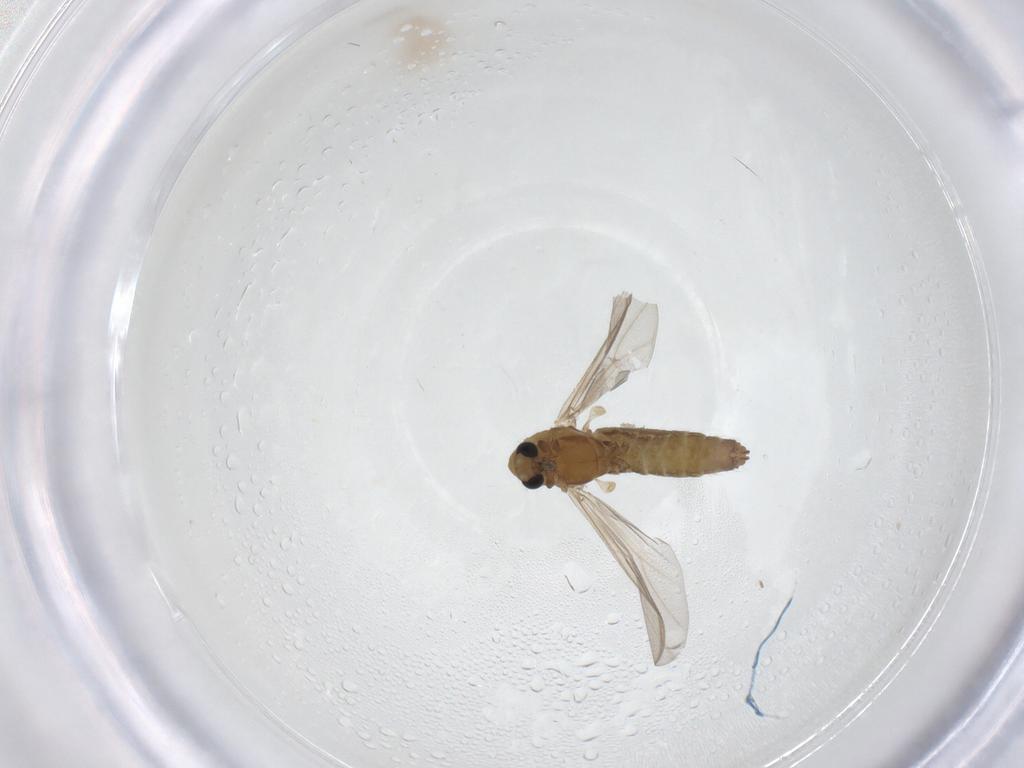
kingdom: Animalia
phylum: Arthropoda
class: Insecta
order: Diptera
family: Chironomidae
